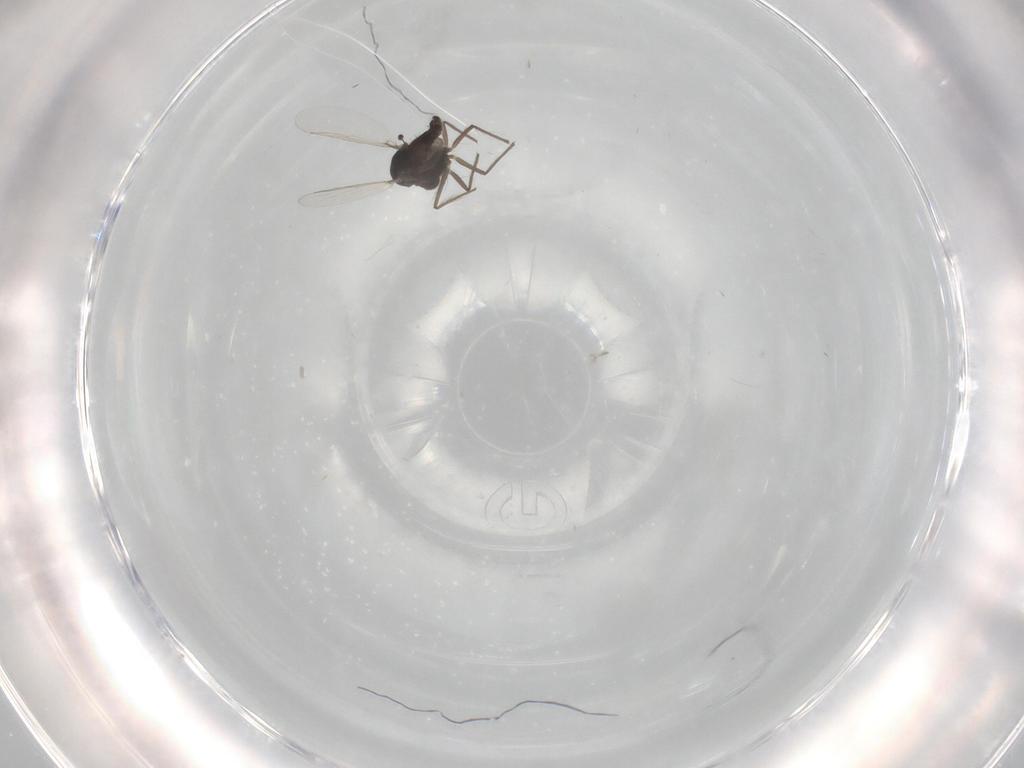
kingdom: Animalia
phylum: Arthropoda
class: Insecta
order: Diptera
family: Chironomidae
